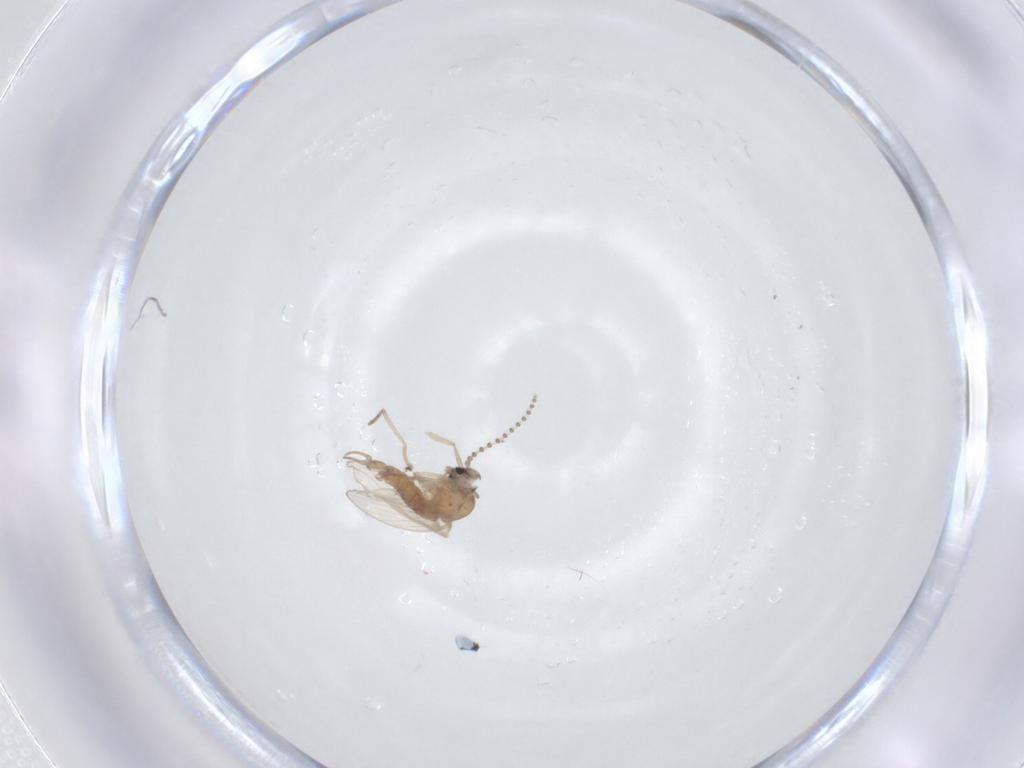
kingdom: Animalia
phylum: Arthropoda
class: Insecta
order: Diptera
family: Psychodidae
